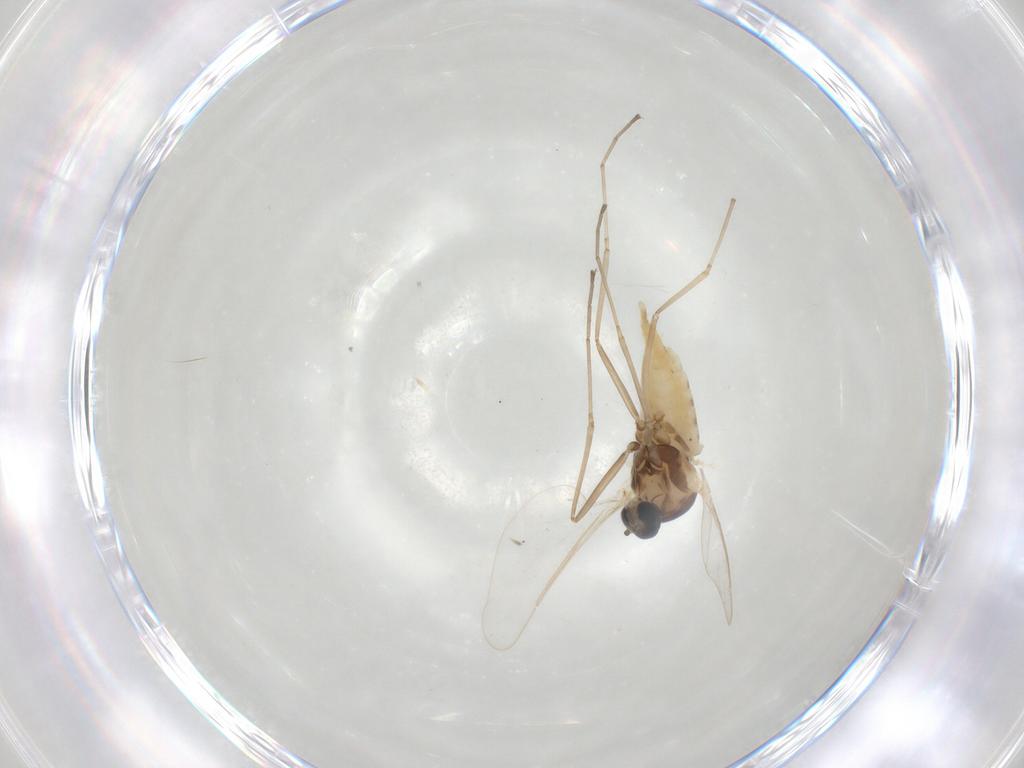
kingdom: Animalia
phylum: Arthropoda
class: Insecta
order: Diptera
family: Cecidomyiidae
